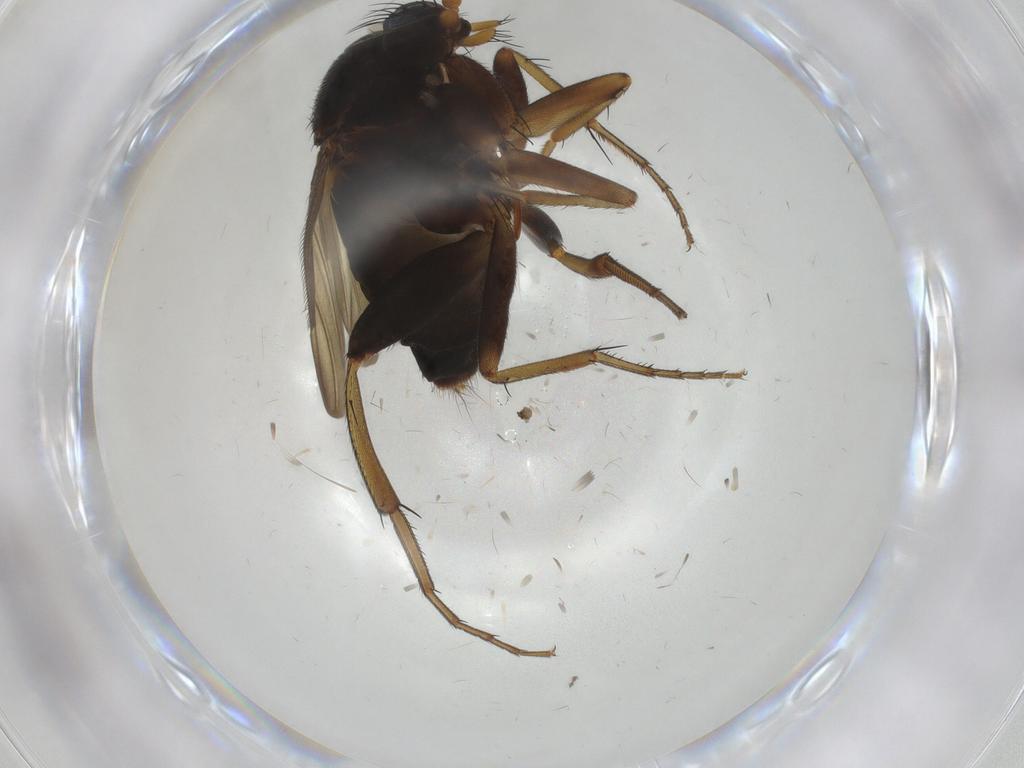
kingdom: Animalia
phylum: Arthropoda
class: Insecta
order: Diptera
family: Phoridae
